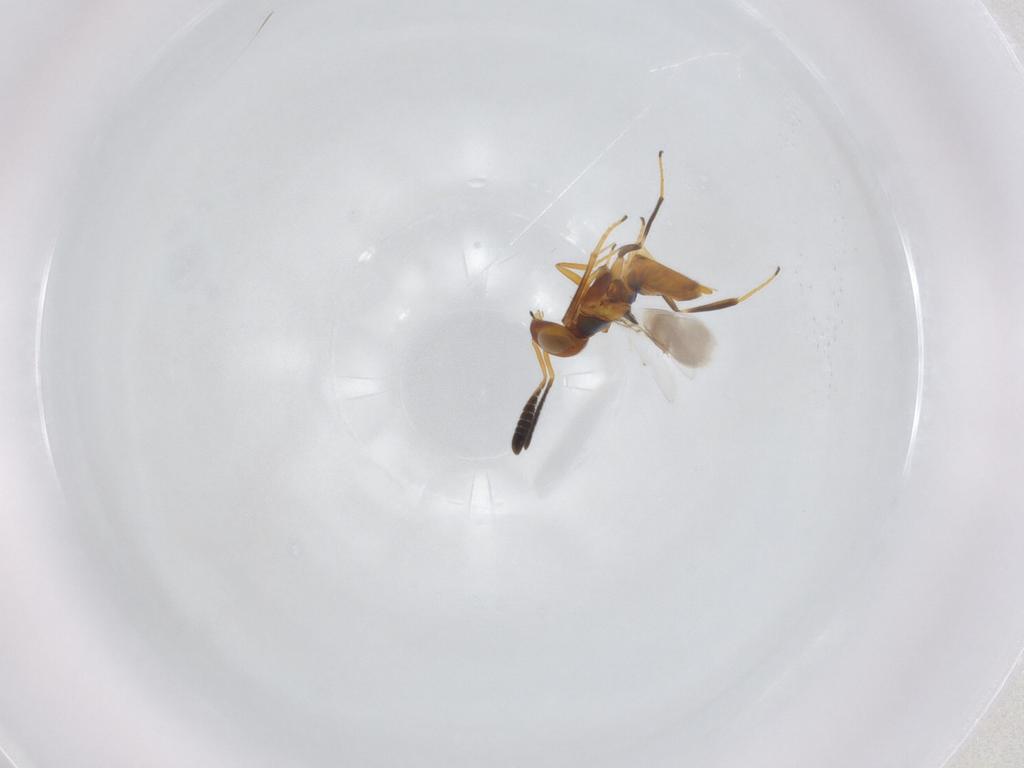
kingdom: Animalia
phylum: Arthropoda
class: Insecta
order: Hymenoptera
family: Encyrtidae
